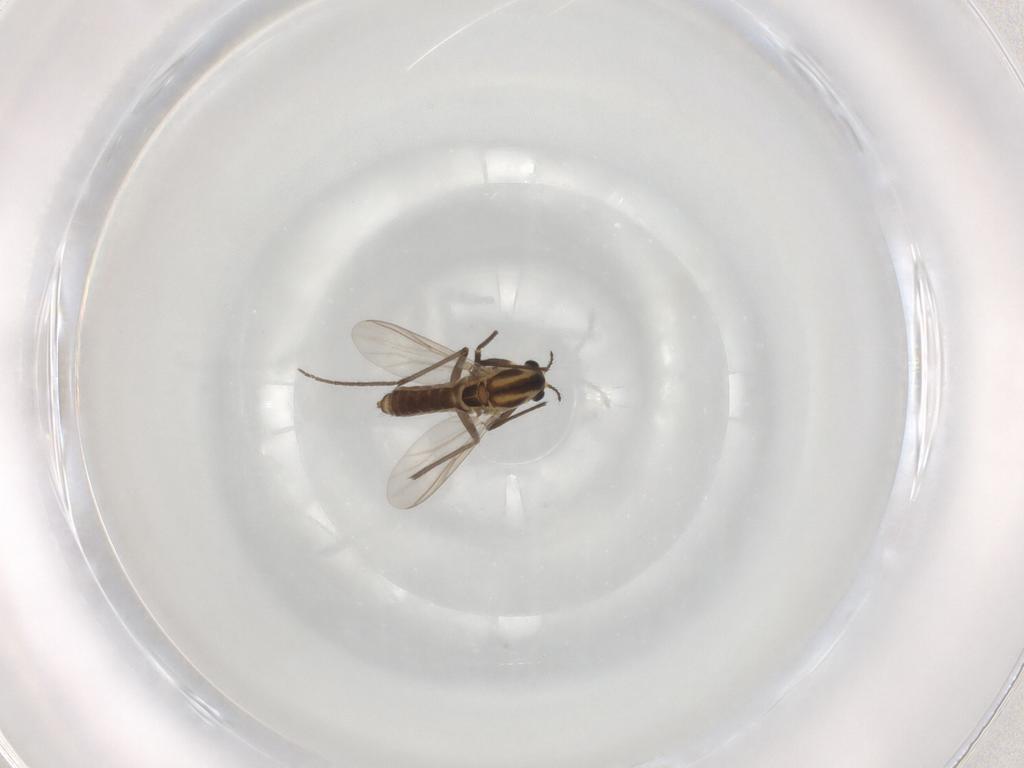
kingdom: Animalia
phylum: Arthropoda
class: Insecta
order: Diptera
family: Chironomidae
